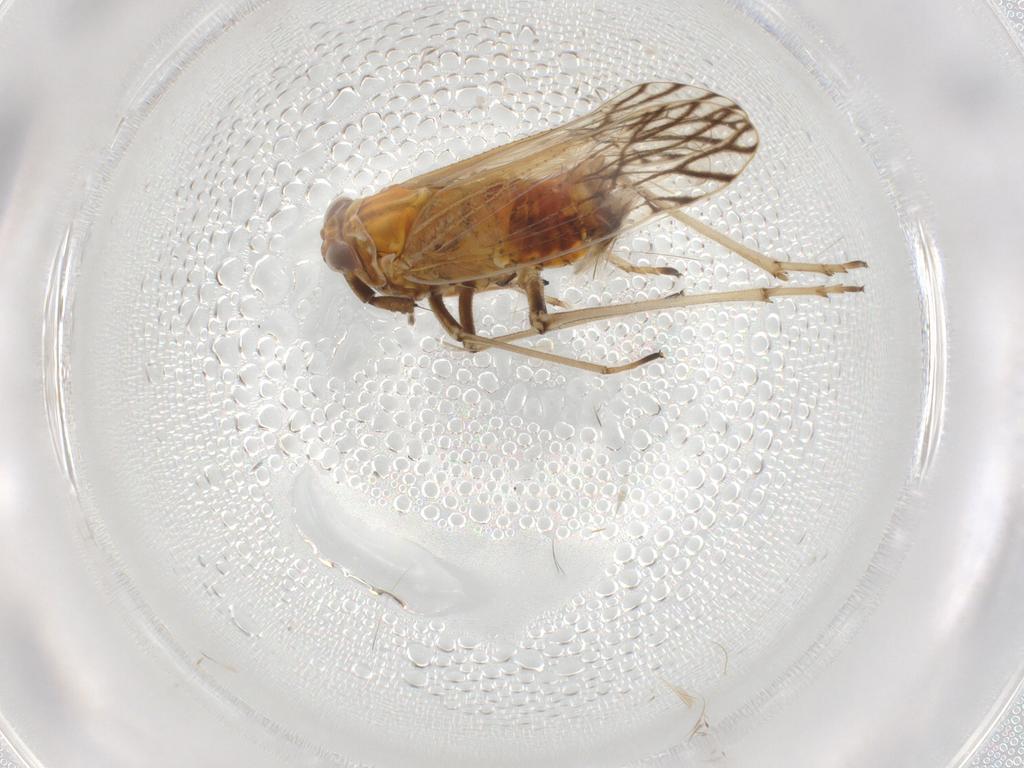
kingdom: Animalia
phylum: Arthropoda
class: Insecta
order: Hemiptera
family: Delphacidae
